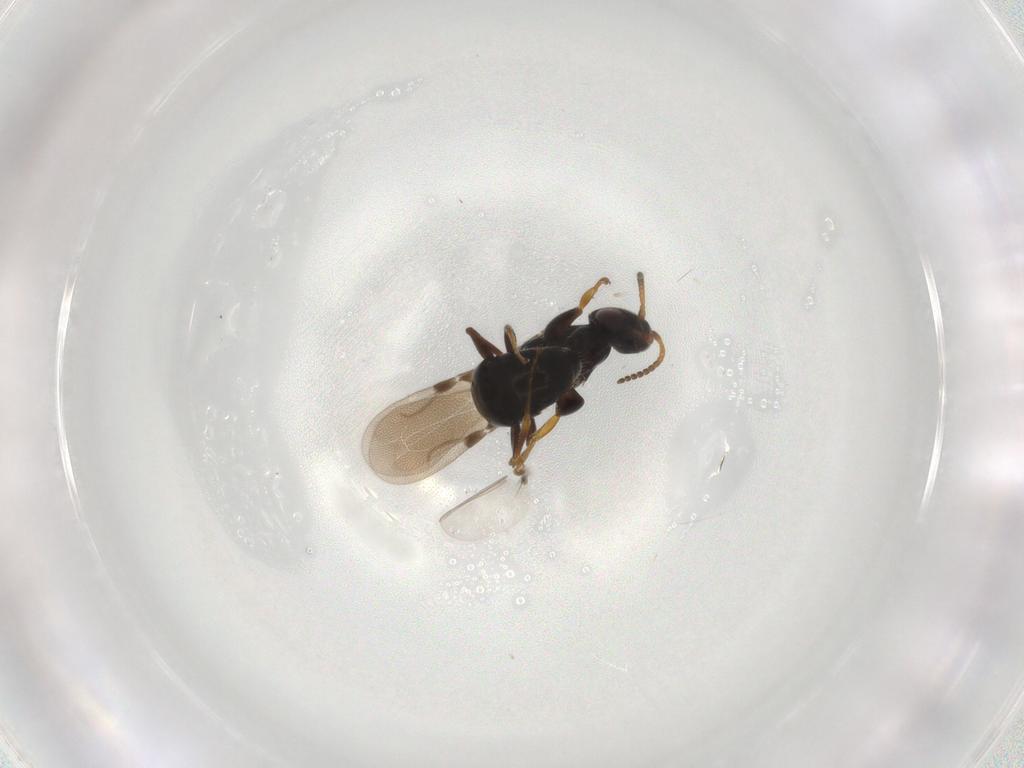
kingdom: Animalia
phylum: Arthropoda
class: Insecta
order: Hymenoptera
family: Bethylidae
